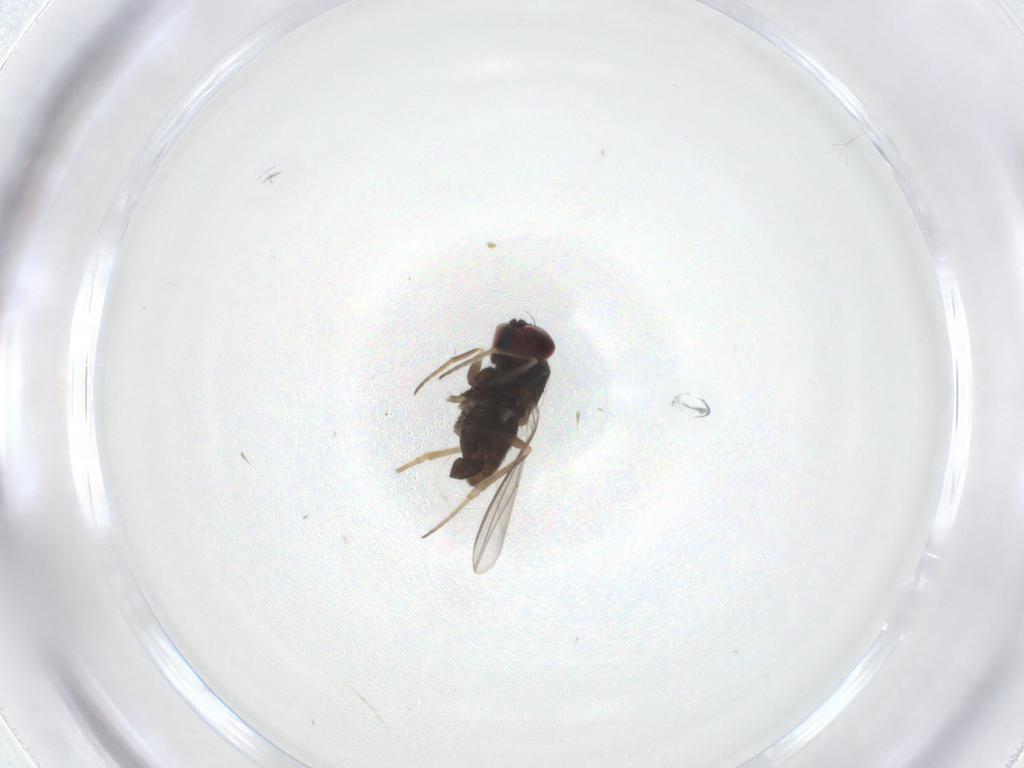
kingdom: Animalia
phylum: Arthropoda
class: Insecta
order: Diptera
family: Dolichopodidae
